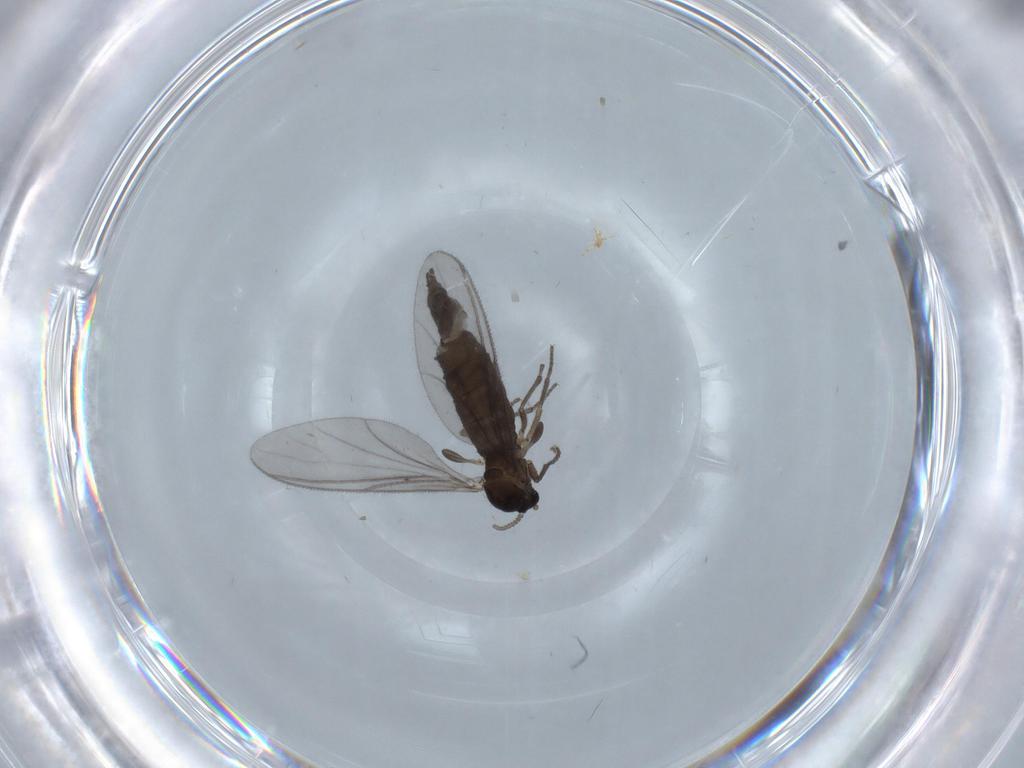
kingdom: Animalia
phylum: Arthropoda
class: Insecta
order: Diptera
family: Sciaridae
